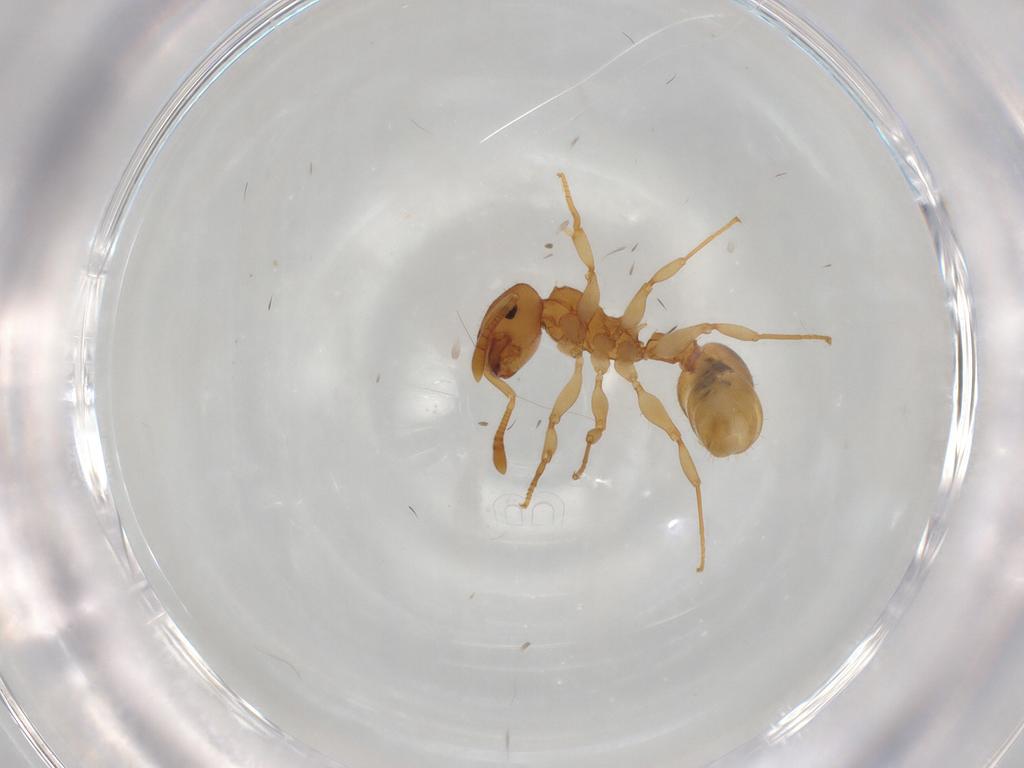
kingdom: Animalia
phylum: Arthropoda
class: Insecta
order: Hymenoptera
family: Formicidae
